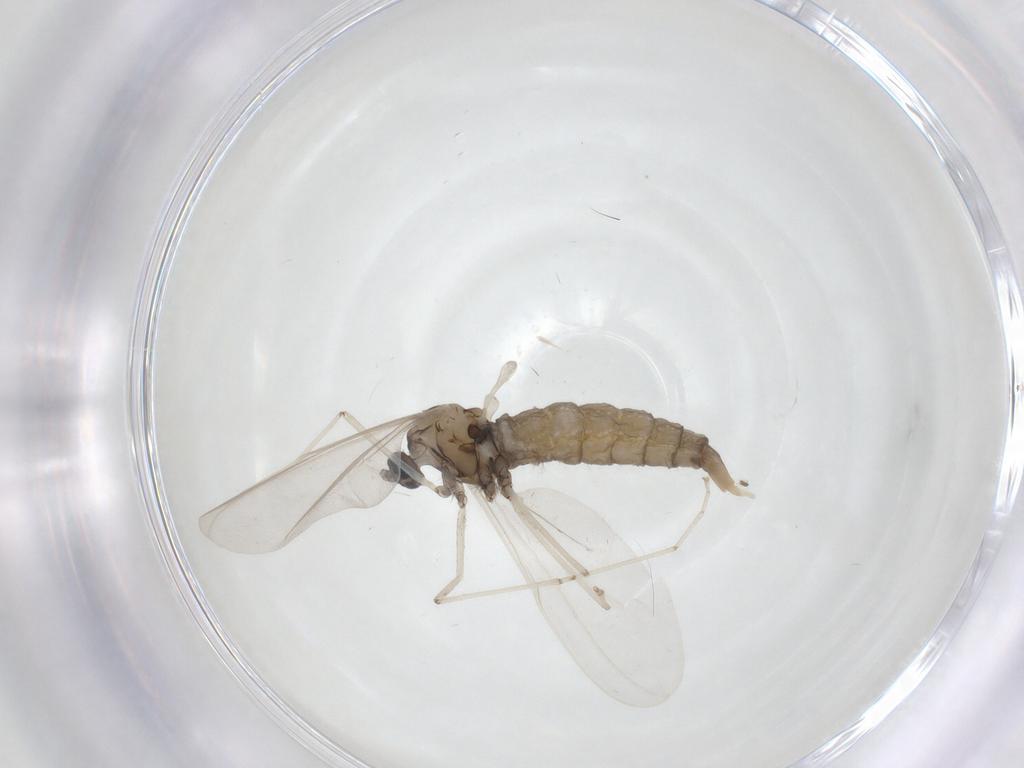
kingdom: Animalia
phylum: Arthropoda
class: Insecta
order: Diptera
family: Cecidomyiidae
